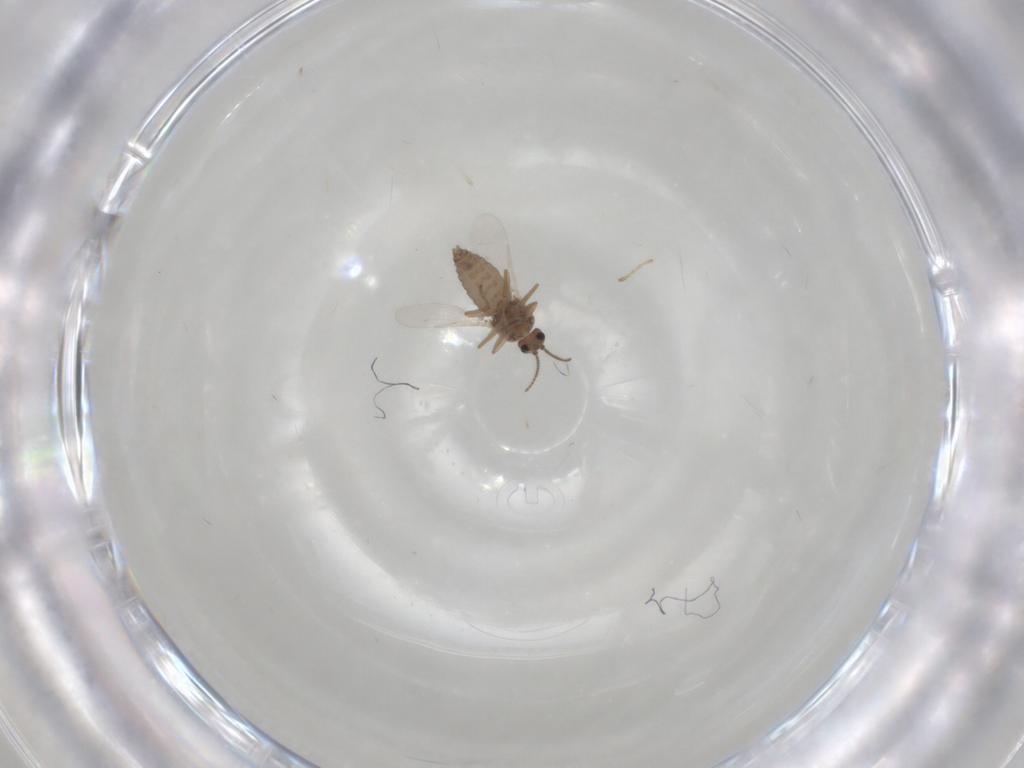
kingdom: Animalia
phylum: Arthropoda
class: Insecta
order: Diptera
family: Ceratopogonidae
